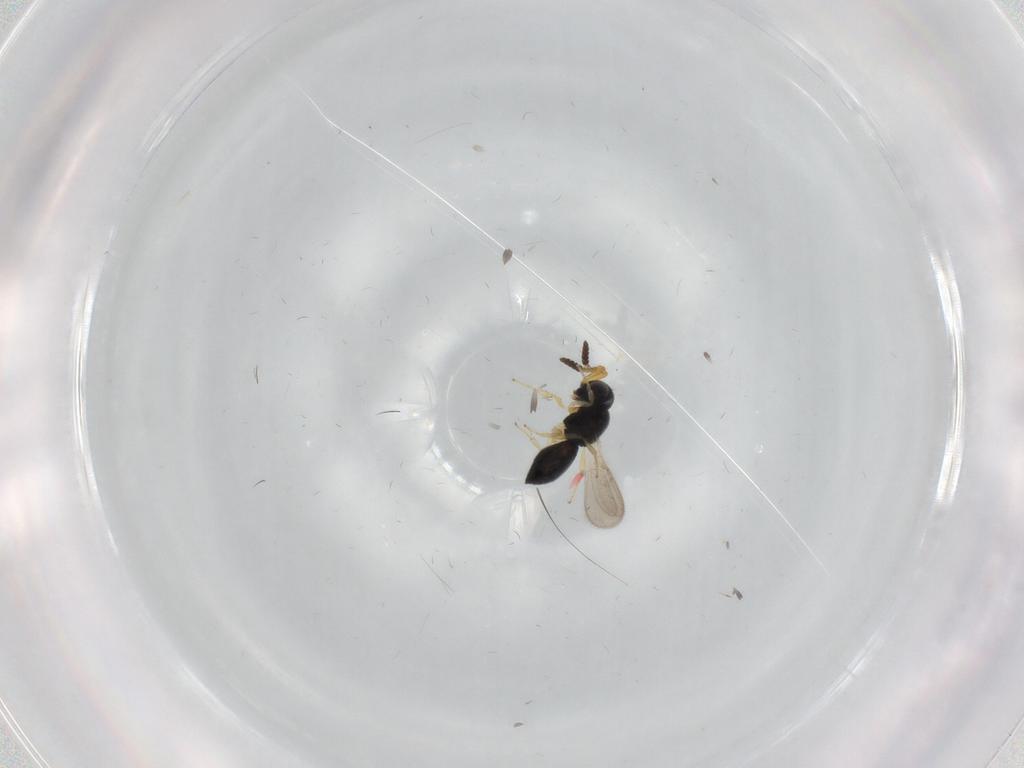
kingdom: Animalia
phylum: Arthropoda
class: Insecta
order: Hymenoptera
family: Scelionidae
